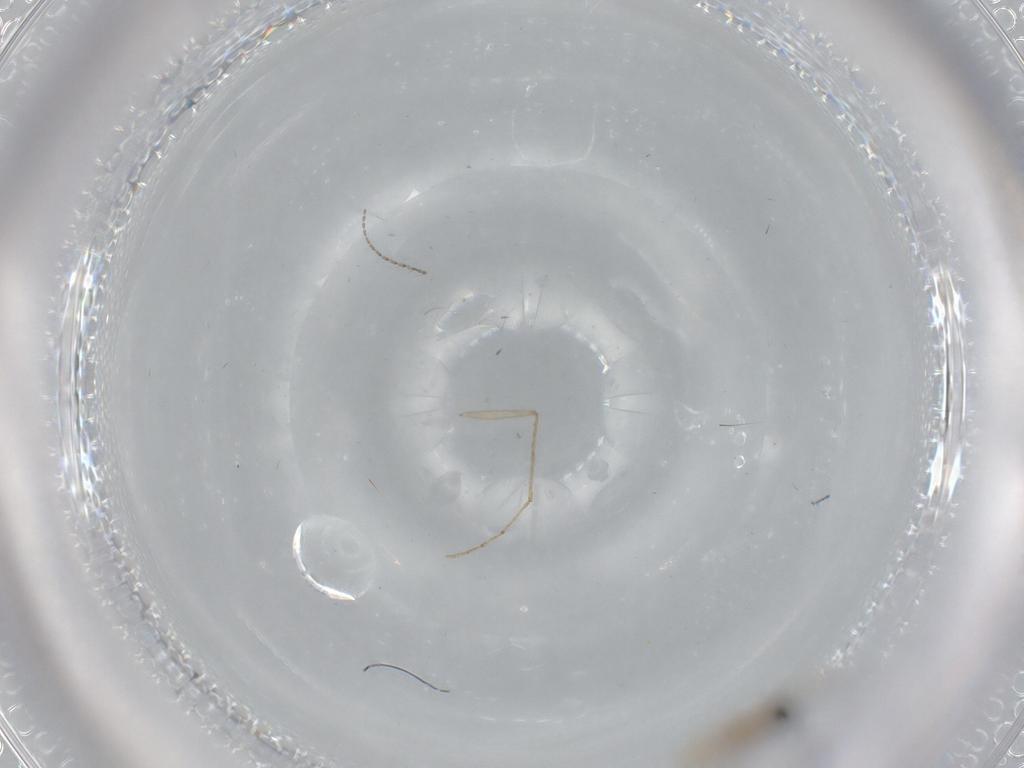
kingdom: Animalia
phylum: Arthropoda
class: Insecta
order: Diptera
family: Cecidomyiidae
